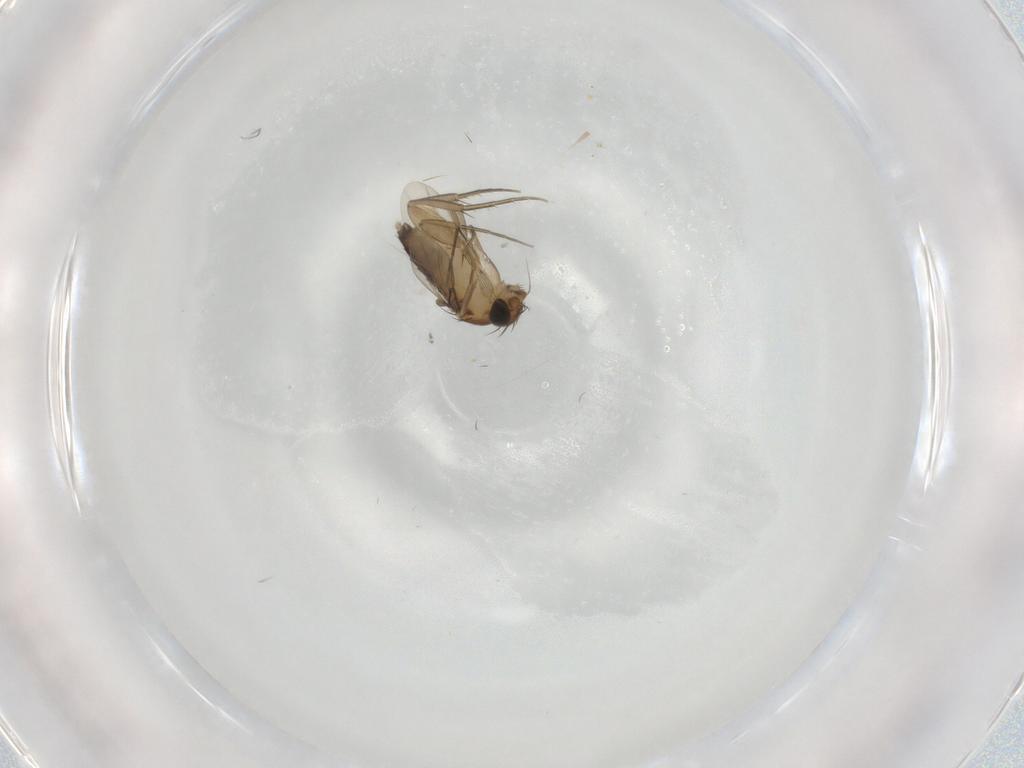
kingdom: Animalia
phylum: Arthropoda
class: Insecta
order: Diptera
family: Phoridae
